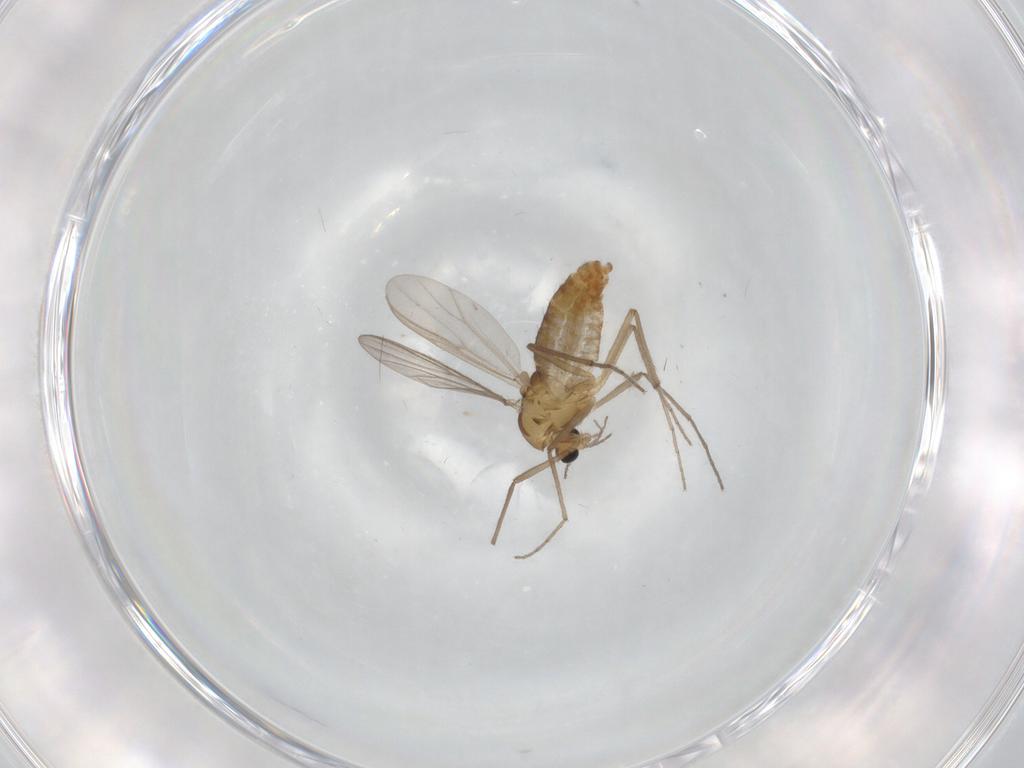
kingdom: Animalia
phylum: Arthropoda
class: Insecta
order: Diptera
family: Chironomidae
